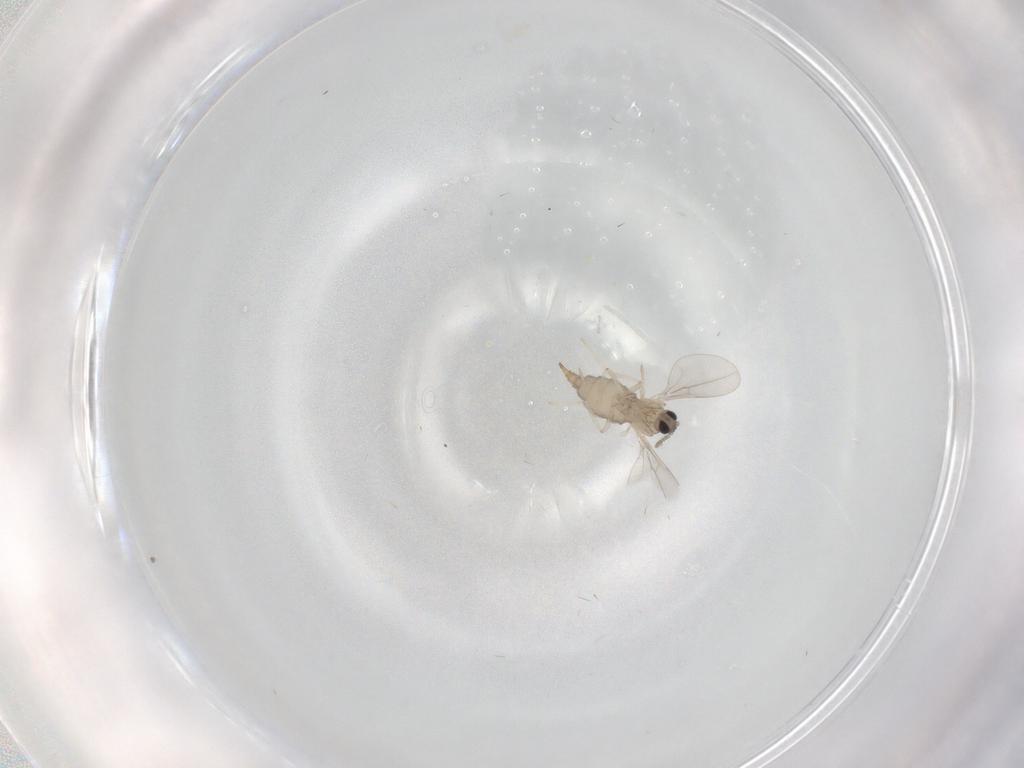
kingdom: Animalia
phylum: Arthropoda
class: Insecta
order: Diptera
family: Cecidomyiidae
